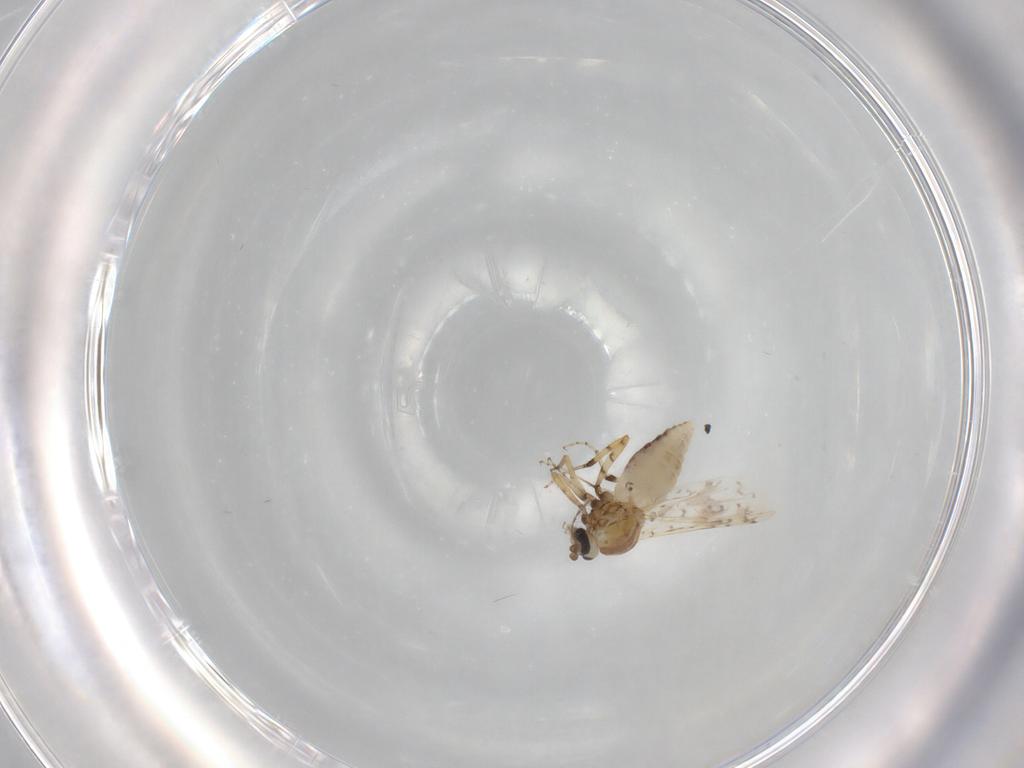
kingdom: Animalia
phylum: Arthropoda
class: Insecta
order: Diptera
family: Ceratopogonidae
